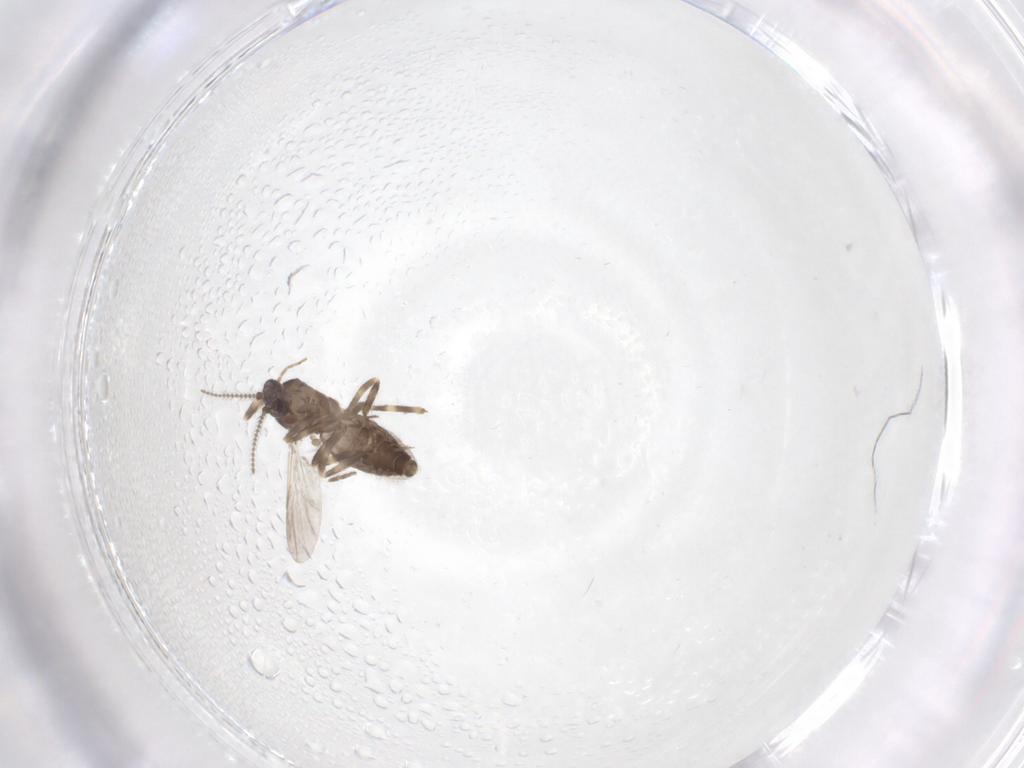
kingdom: Animalia
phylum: Arthropoda
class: Insecta
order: Diptera
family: Ceratopogonidae
